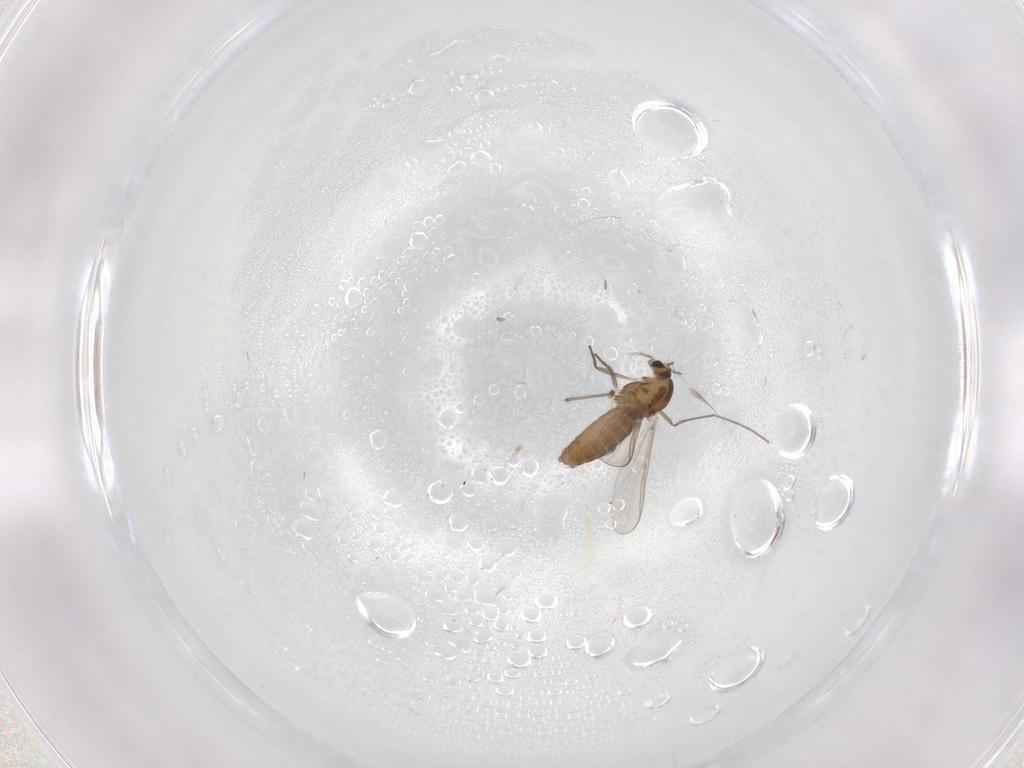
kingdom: Animalia
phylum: Arthropoda
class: Insecta
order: Diptera
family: Chironomidae
